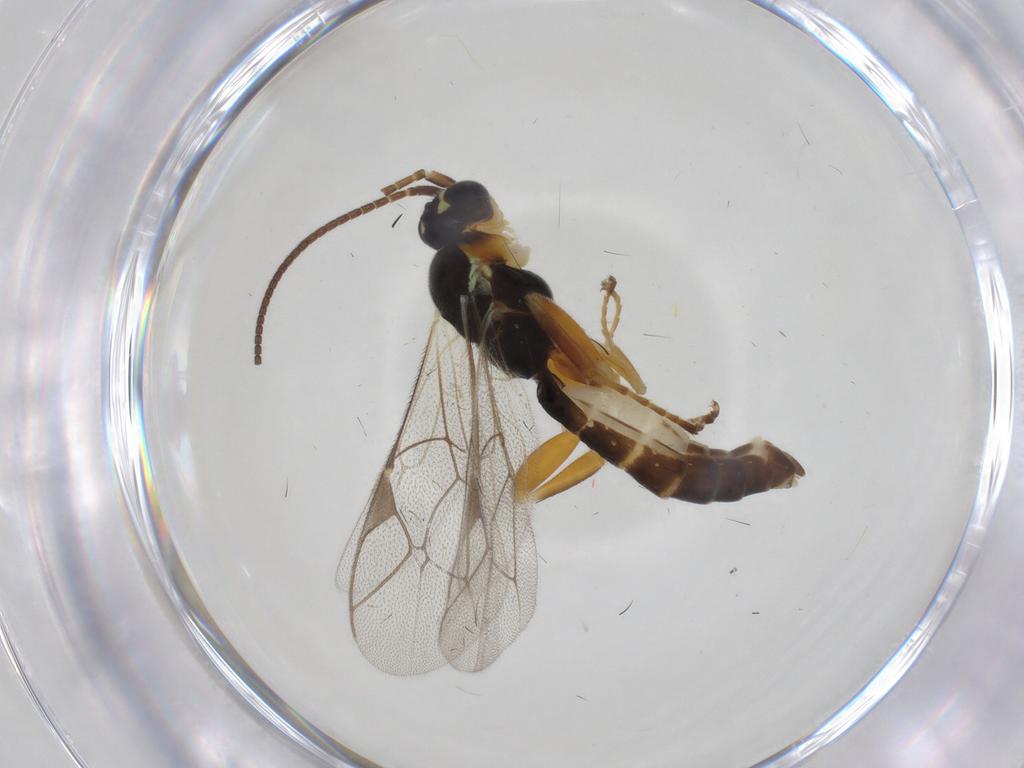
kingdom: Animalia
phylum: Arthropoda
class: Insecta
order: Hymenoptera
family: Ichneumonidae
